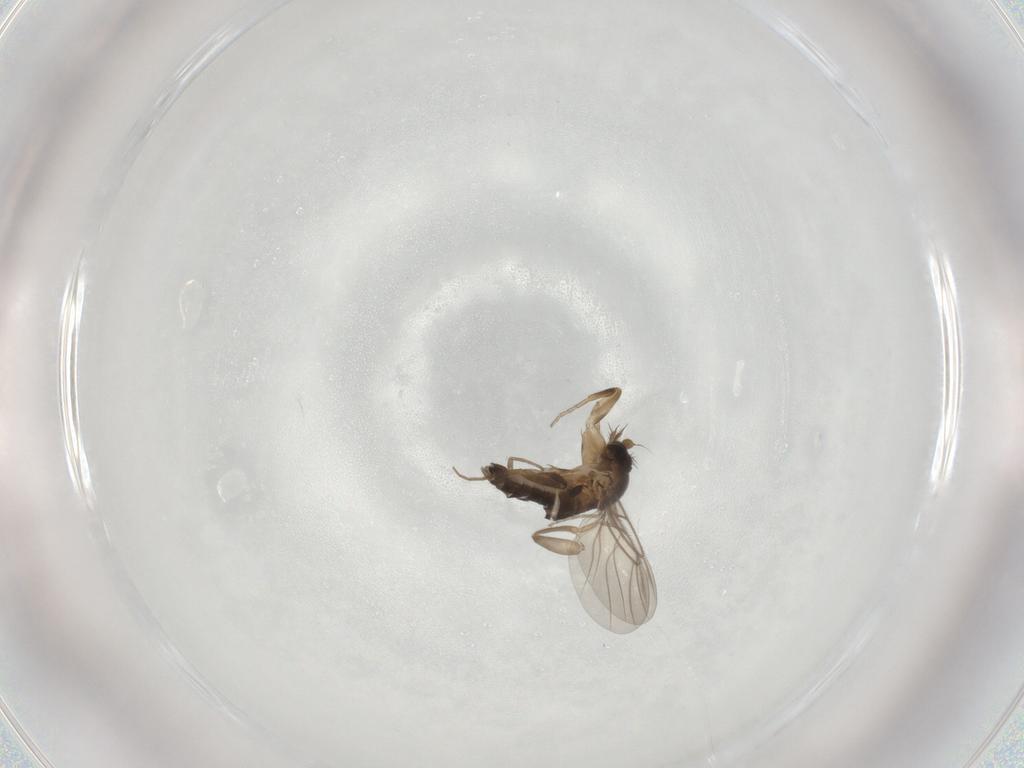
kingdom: Animalia
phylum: Arthropoda
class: Insecta
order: Diptera
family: Phoridae
